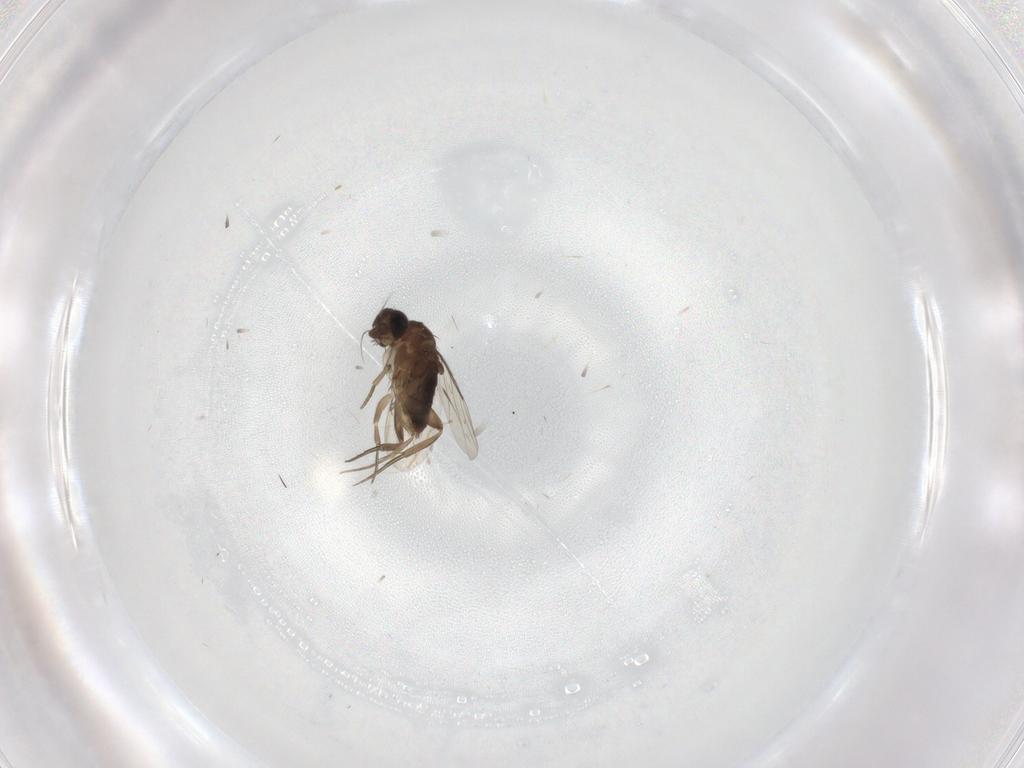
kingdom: Animalia
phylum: Arthropoda
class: Insecta
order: Diptera
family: Phoridae
